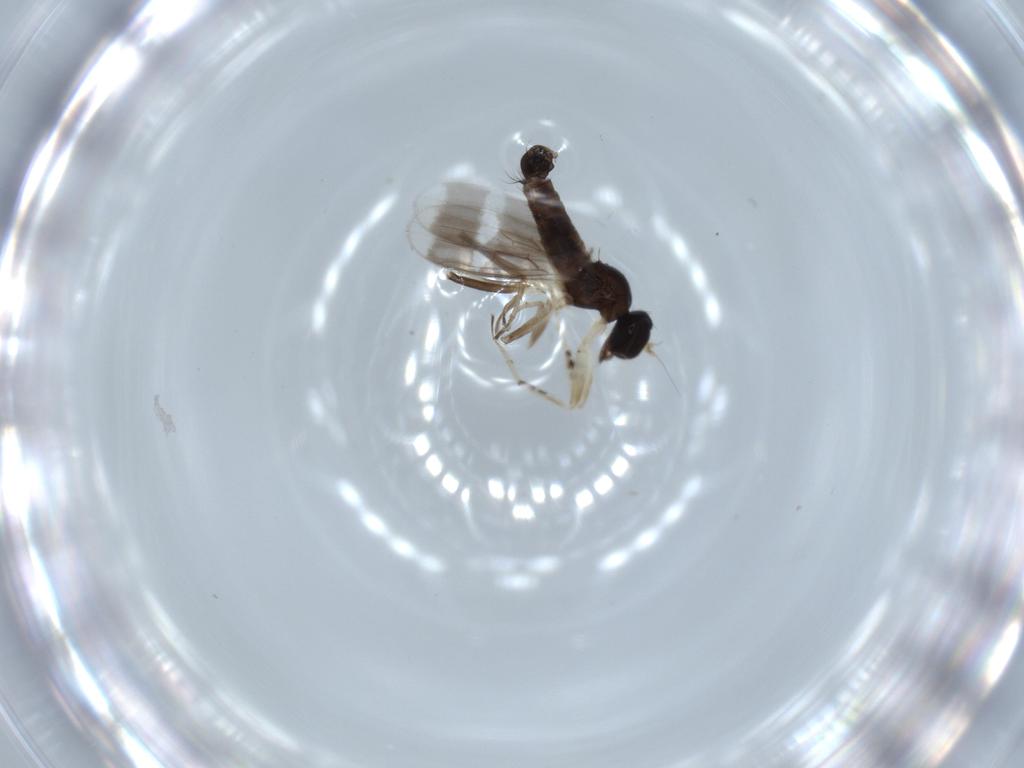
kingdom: Animalia
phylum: Arthropoda
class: Insecta
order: Diptera
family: Hybotidae
